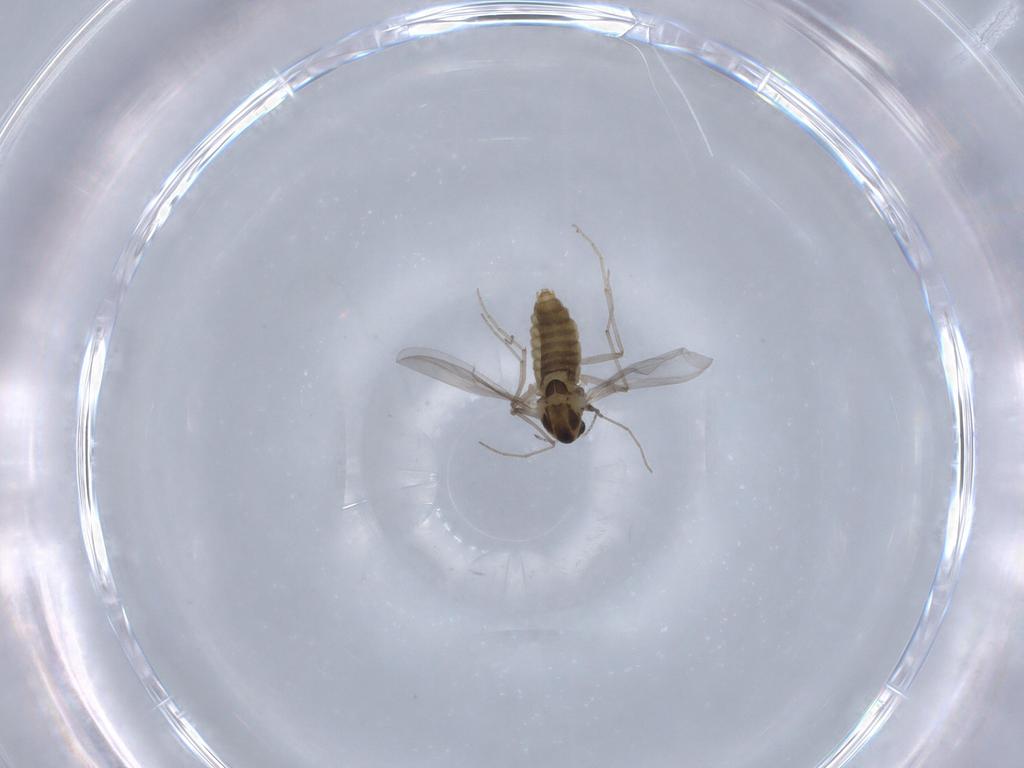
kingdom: Animalia
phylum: Arthropoda
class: Insecta
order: Diptera
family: Chironomidae
